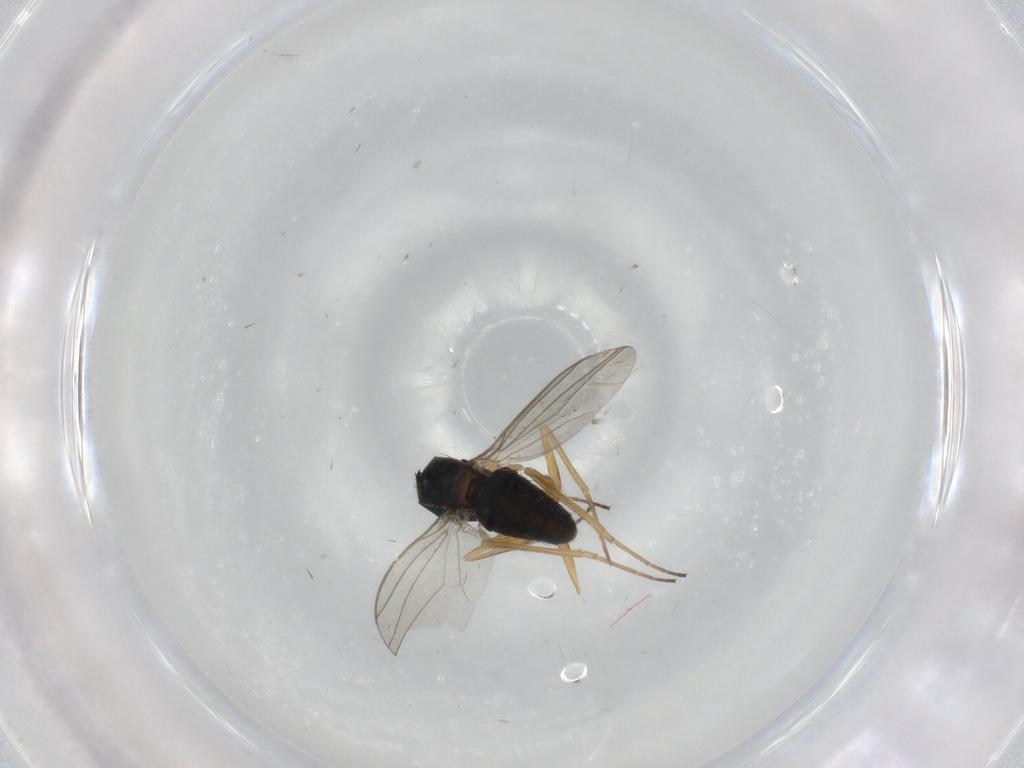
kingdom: Animalia
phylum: Arthropoda
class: Insecta
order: Diptera
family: Dolichopodidae
